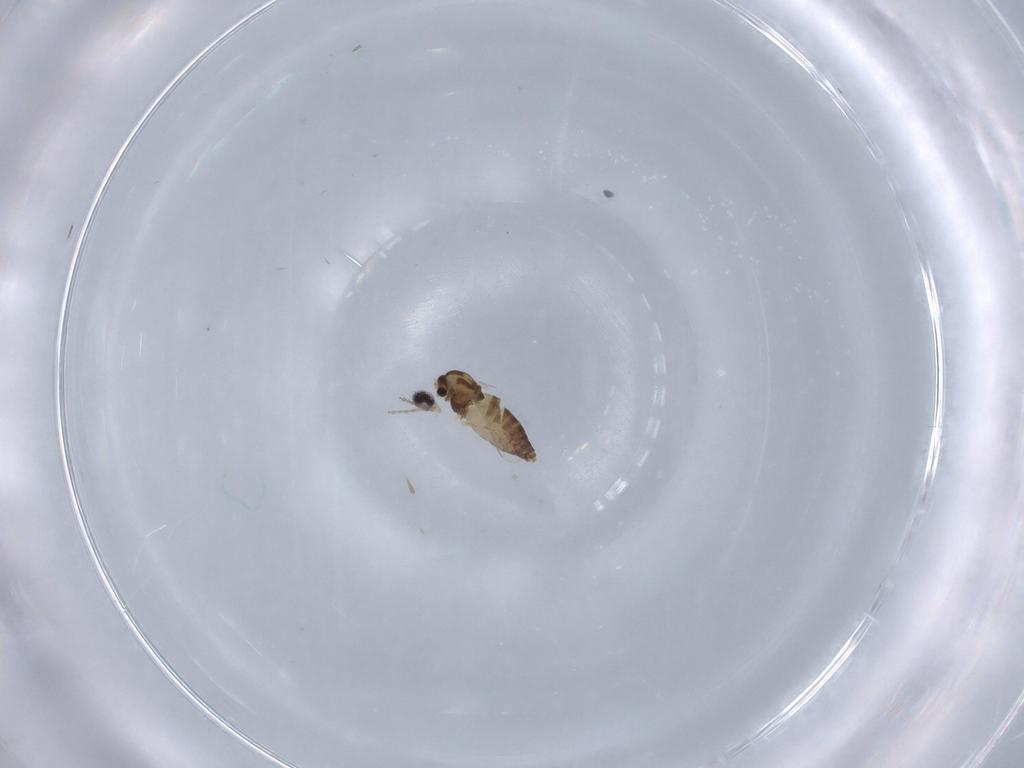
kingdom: Animalia
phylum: Arthropoda
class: Insecta
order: Diptera
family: Chironomidae
